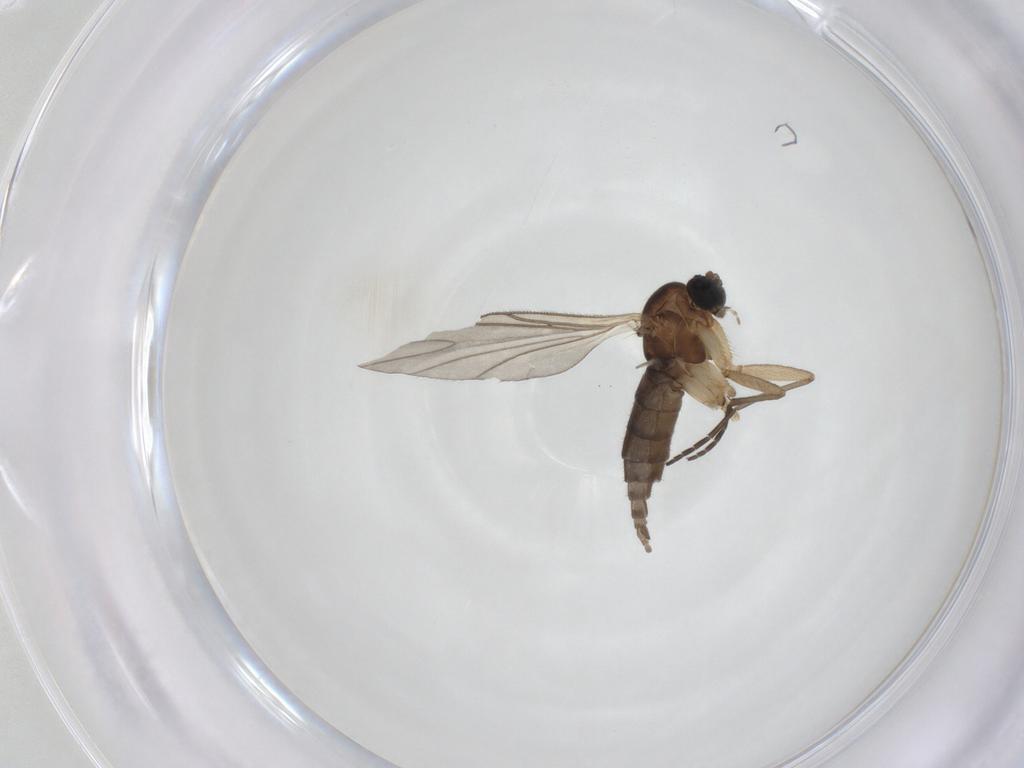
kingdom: Animalia
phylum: Arthropoda
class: Insecta
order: Diptera
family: Sciaridae
